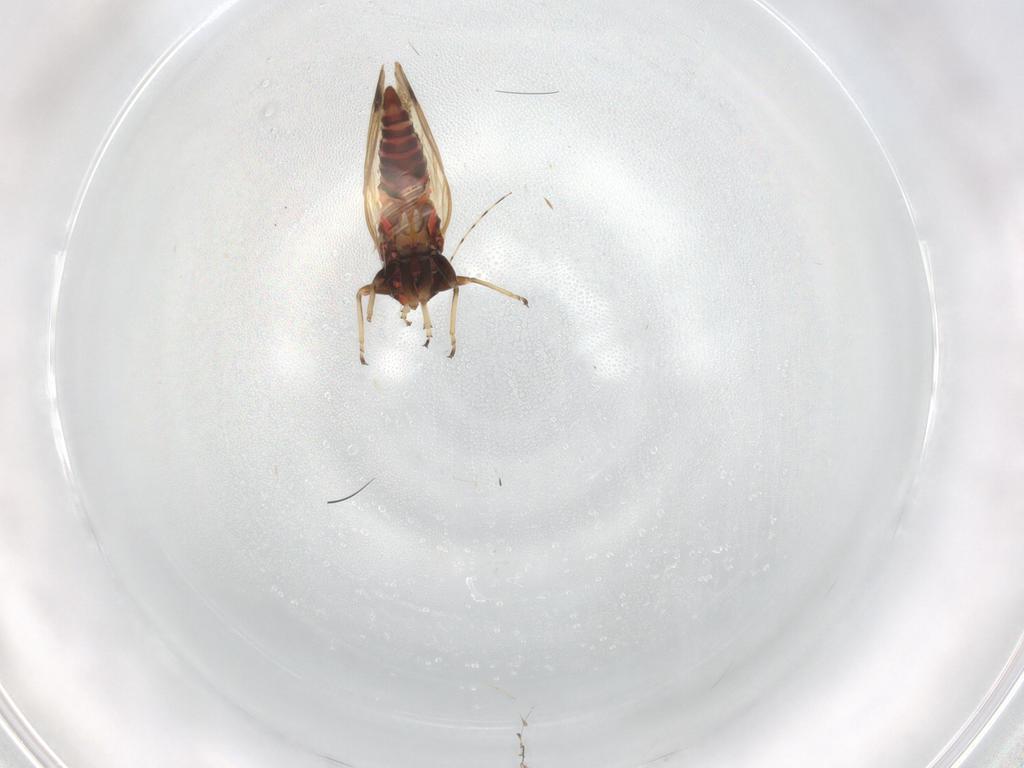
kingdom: Animalia
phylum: Arthropoda
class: Insecta
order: Hemiptera
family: Psyllidae
